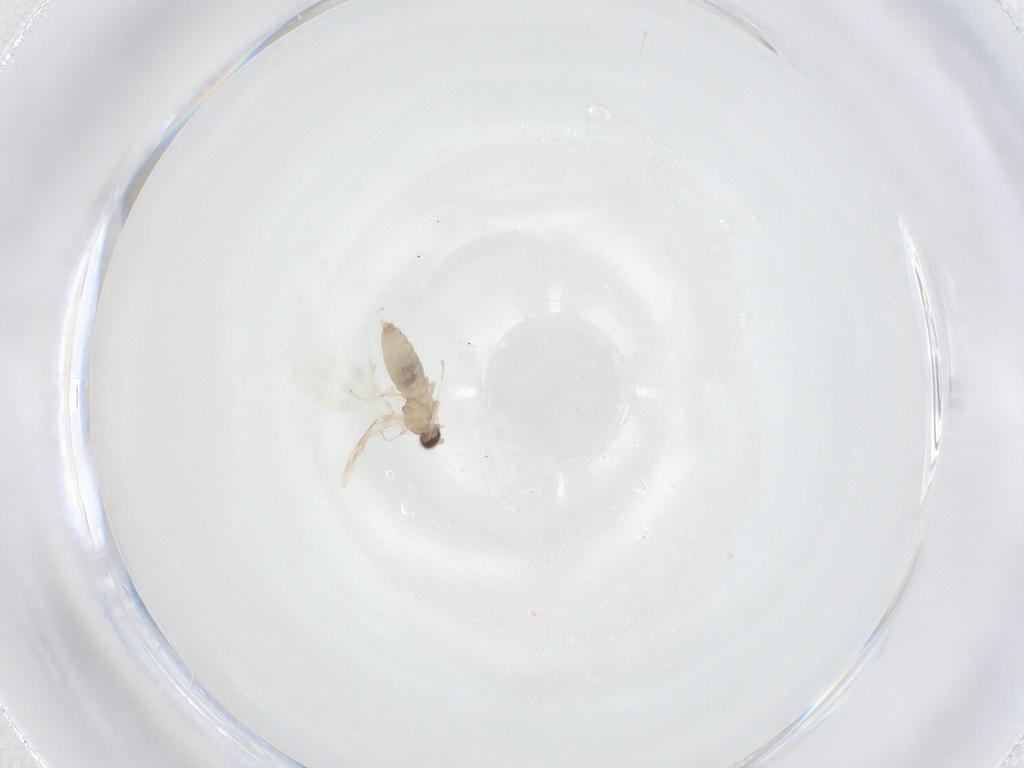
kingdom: Animalia
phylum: Arthropoda
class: Insecta
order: Diptera
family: Cecidomyiidae
